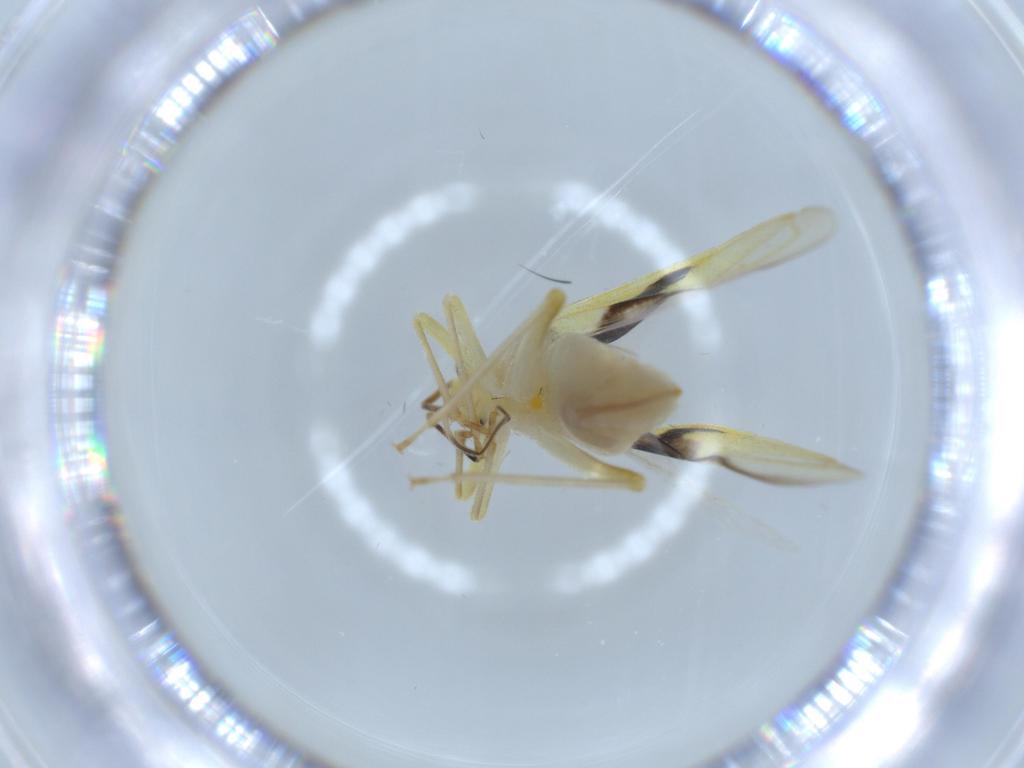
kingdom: Animalia
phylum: Arthropoda
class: Insecta
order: Hemiptera
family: Miridae
